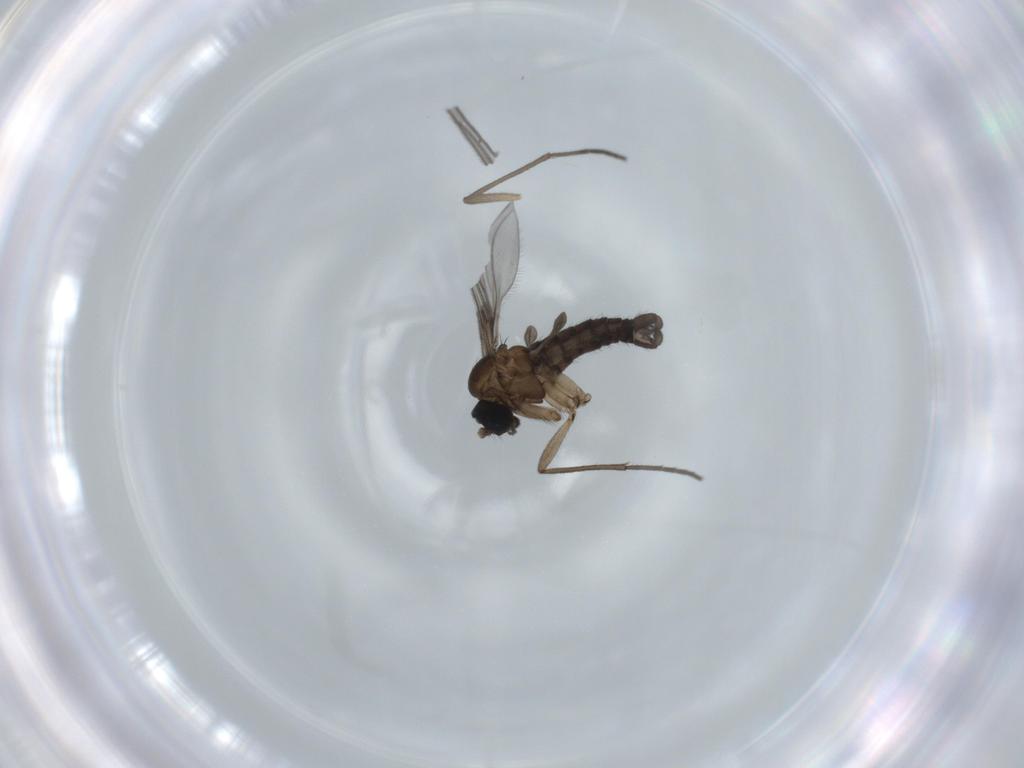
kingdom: Animalia
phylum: Arthropoda
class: Insecta
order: Diptera
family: Sciaridae
